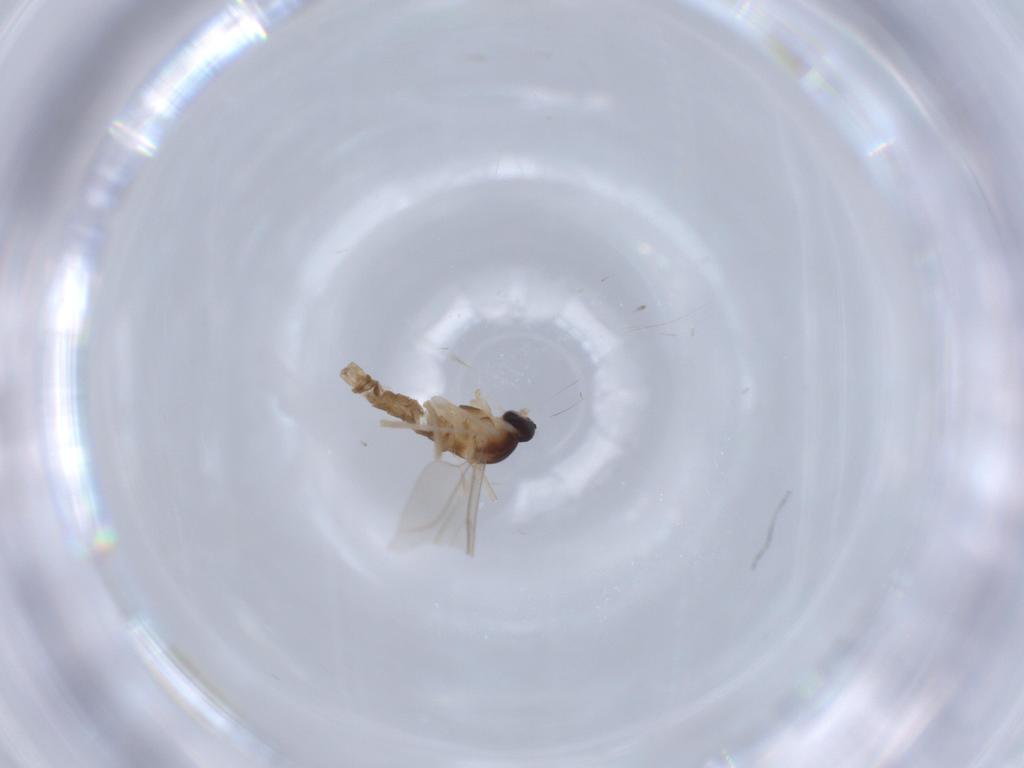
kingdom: Animalia
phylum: Arthropoda
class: Insecta
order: Diptera
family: Cecidomyiidae
